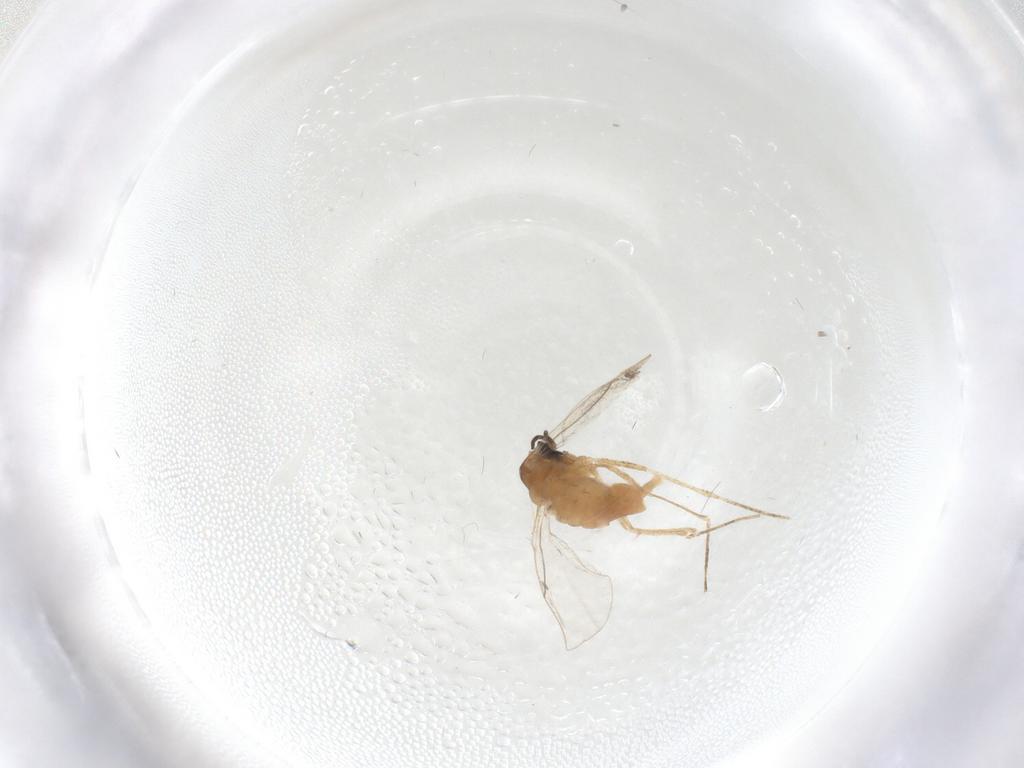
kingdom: Animalia
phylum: Arthropoda
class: Insecta
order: Diptera
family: Cecidomyiidae
